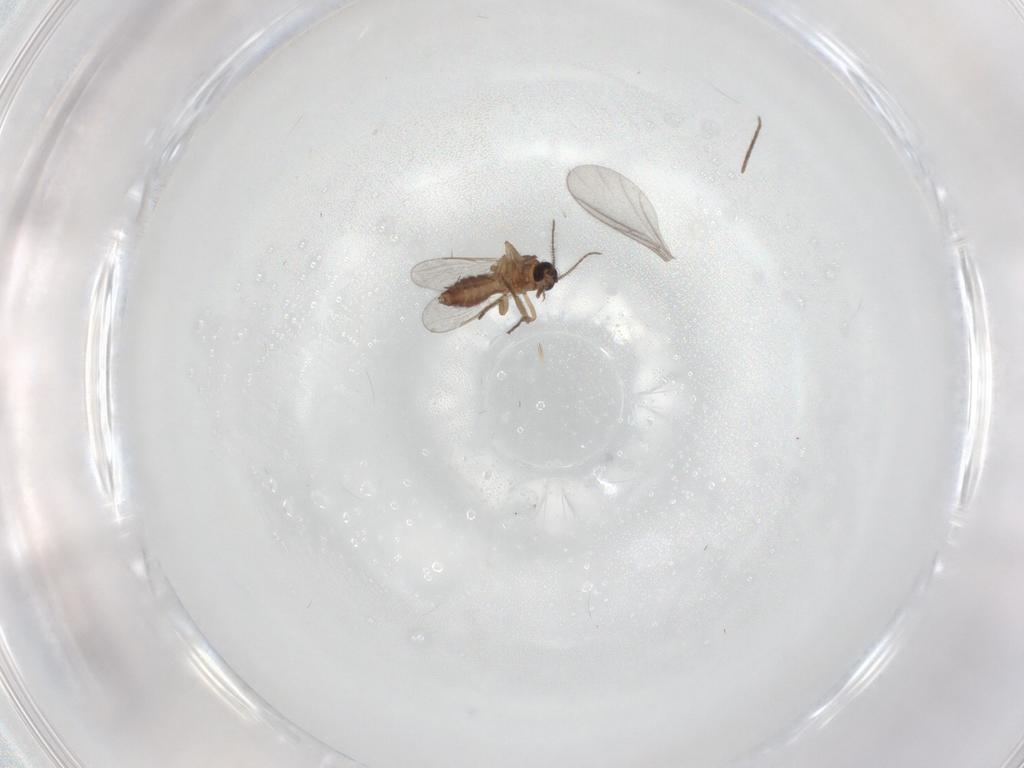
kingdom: Animalia
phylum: Arthropoda
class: Insecta
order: Diptera
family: Sciaridae
